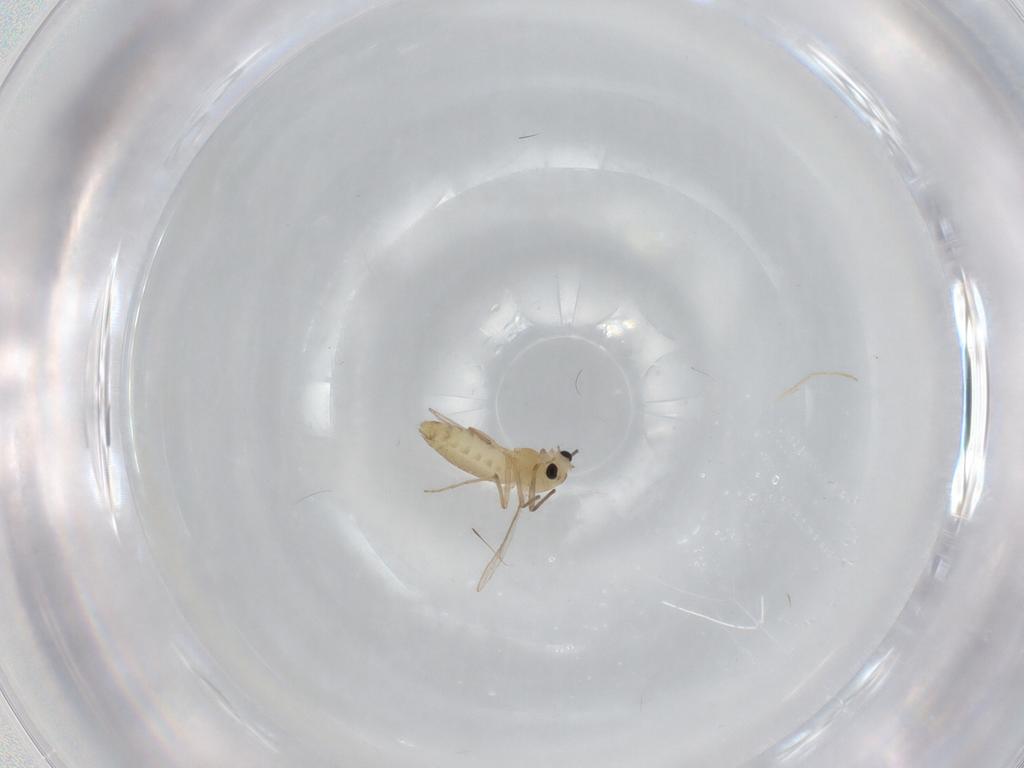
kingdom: Animalia
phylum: Arthropoda
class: Insecta
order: Diptera
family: Chironomidae
